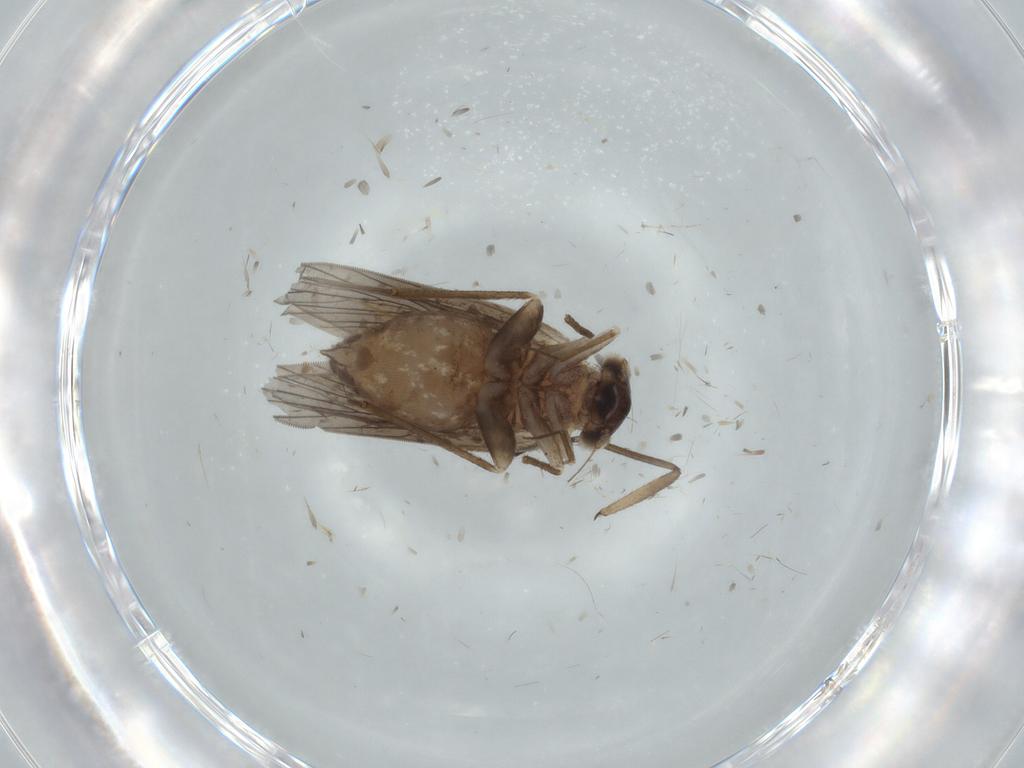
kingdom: Animalia
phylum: Arthropoda
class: Insecta
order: Psocodea
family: Lepidopsocidae
